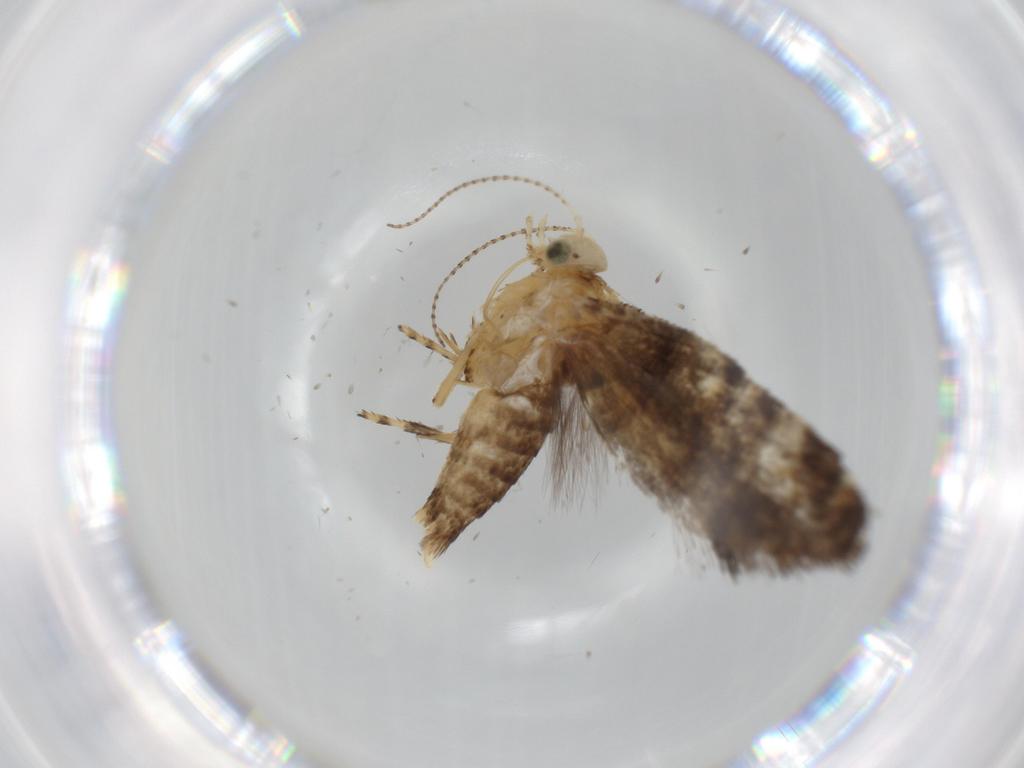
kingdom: Animalia
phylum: Arthropoda
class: Insecta
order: Lepidoptera
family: Glyphipterigidae
